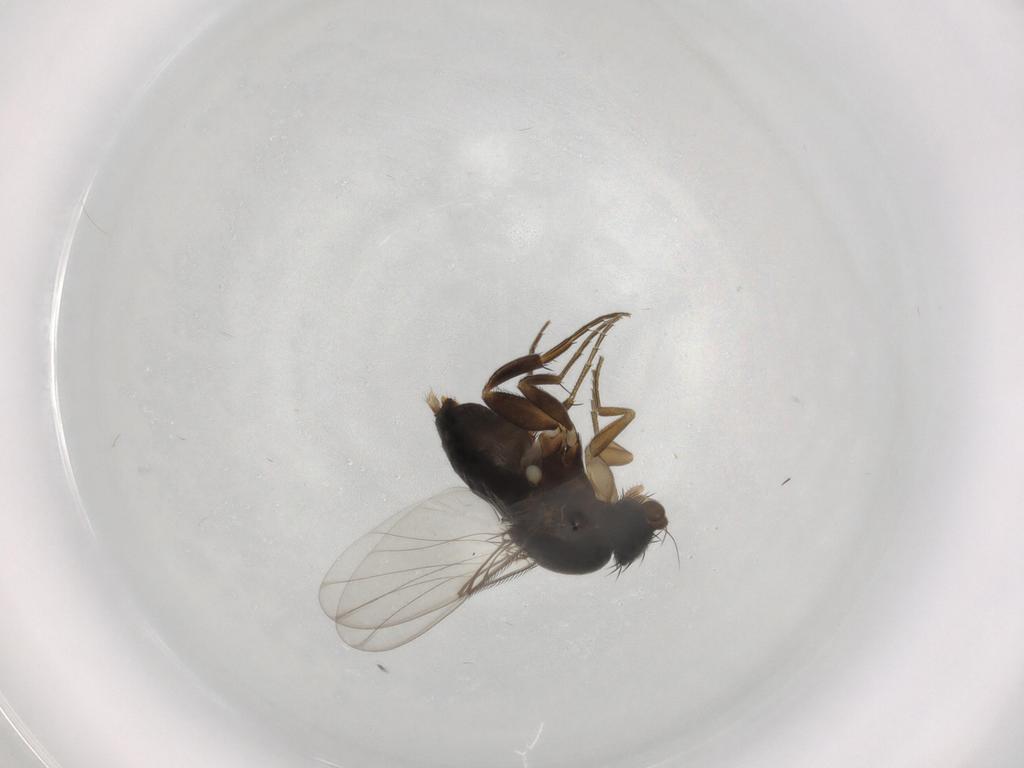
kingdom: Animalia
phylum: Arthropoda
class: Insecta
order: Diptera
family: Phoridae
